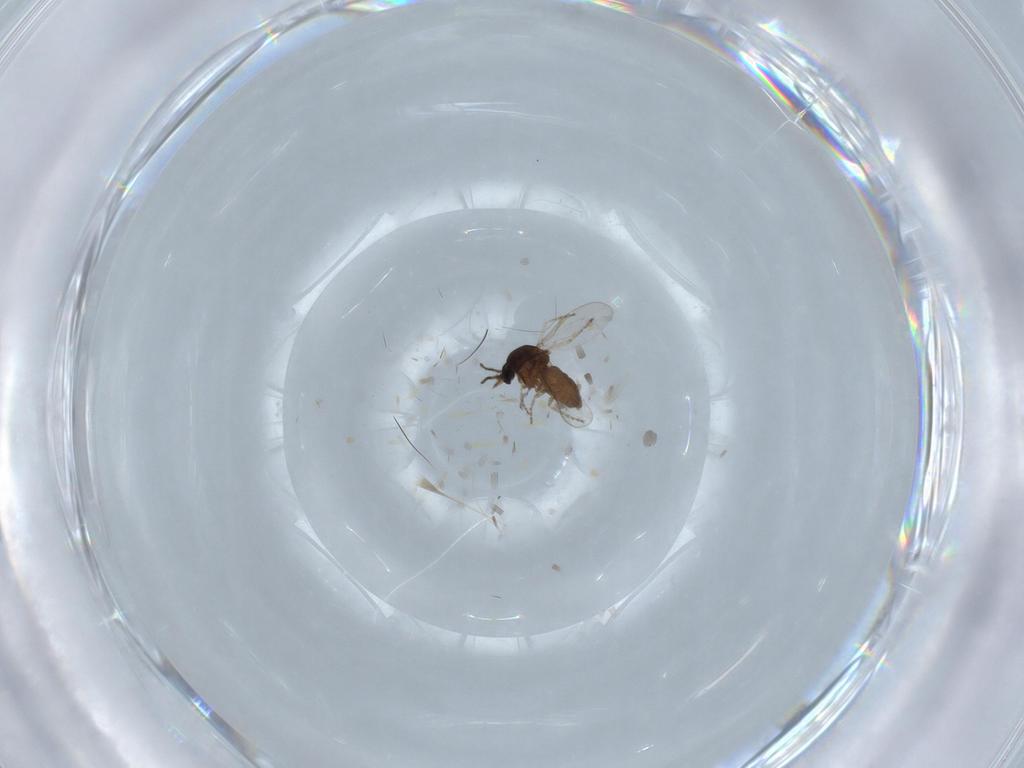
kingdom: Animalia
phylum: Arthropoda
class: Insecta
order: Diptera
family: Ceratopogonidae
